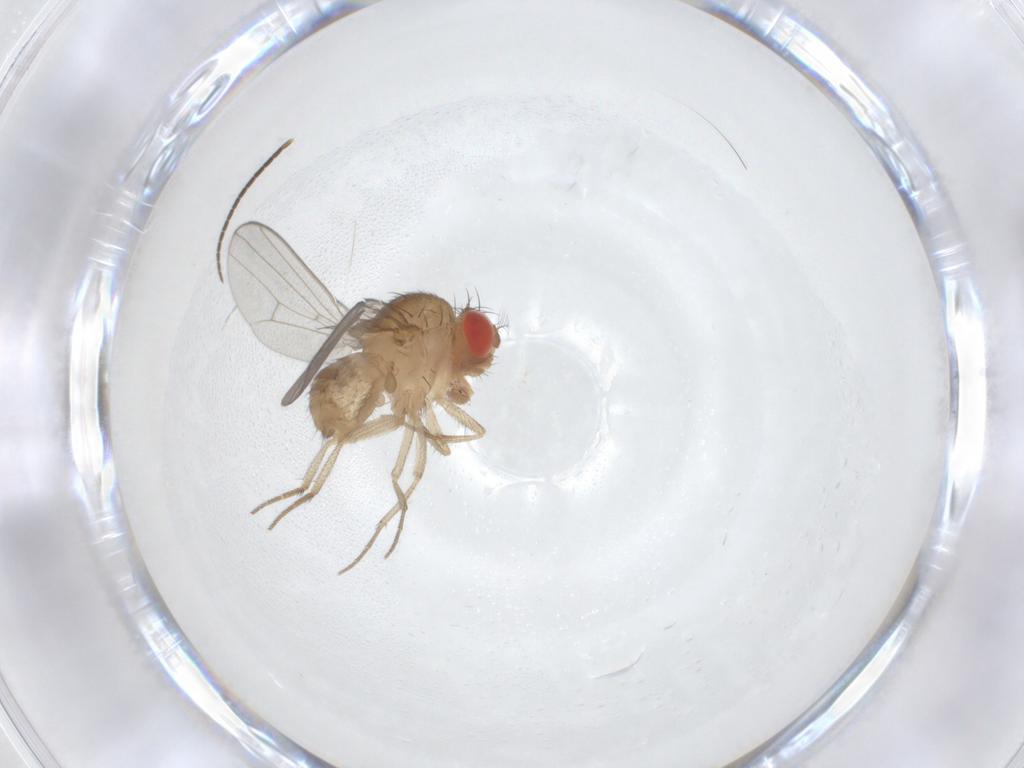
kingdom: Animalia
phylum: Arthropoda
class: Insecta
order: Diptera
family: Drosophilidae
